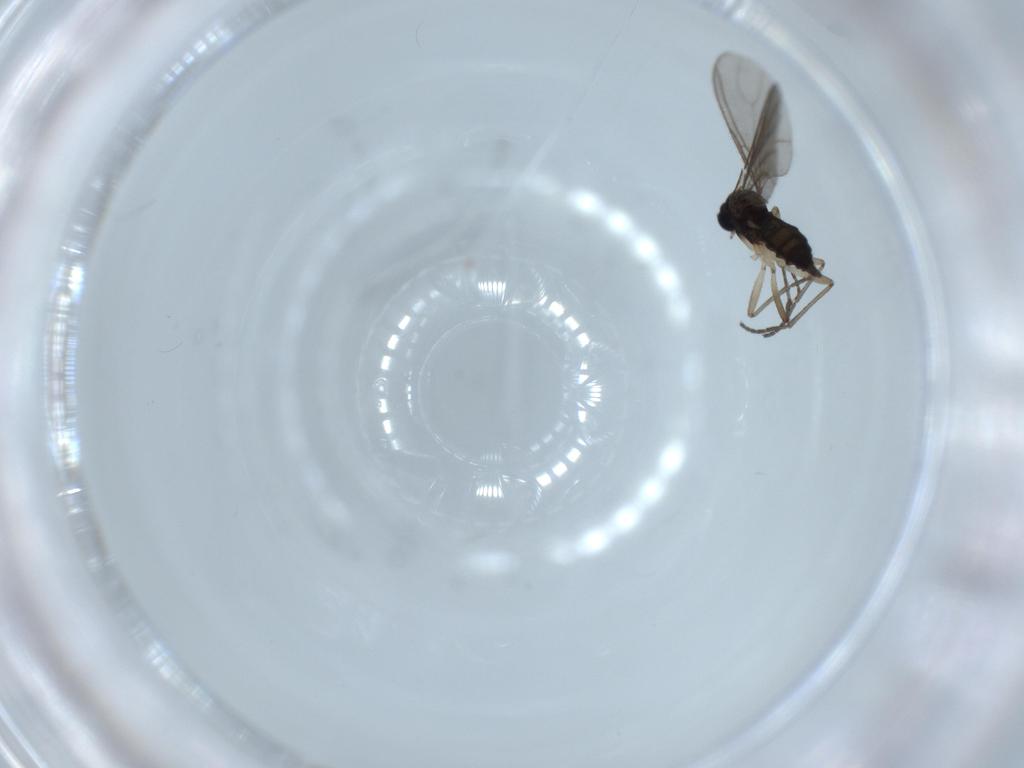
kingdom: Animalia
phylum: Arthropoda
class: Insecta
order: Diptera
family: Sciaridae
